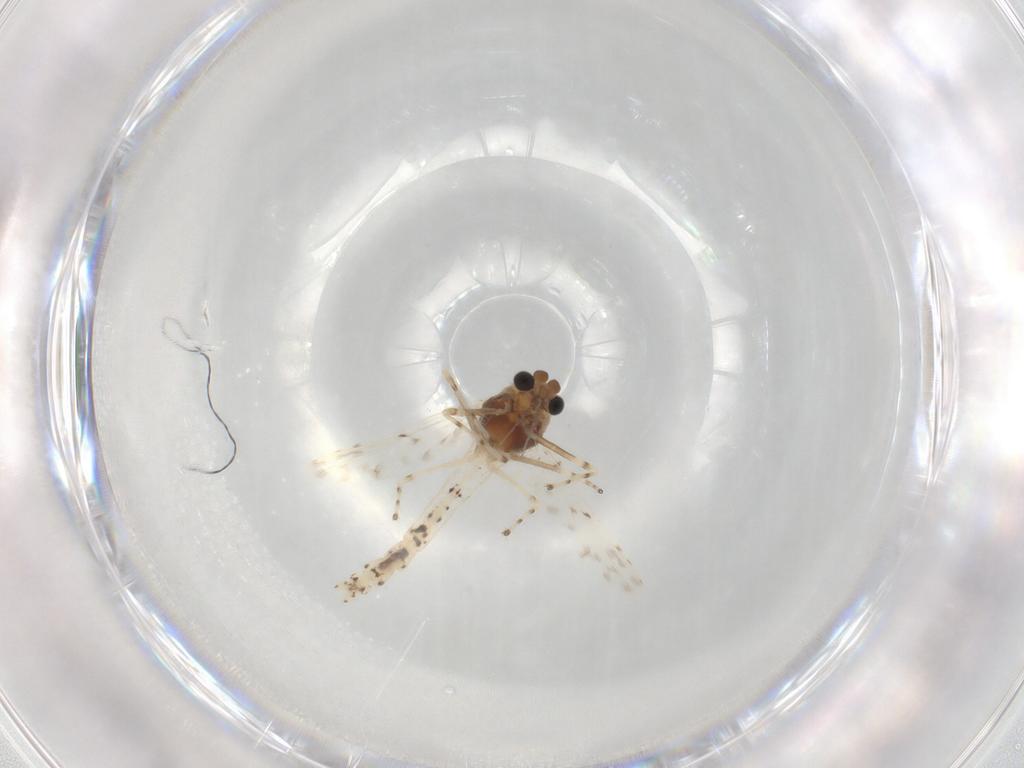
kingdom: Animalia
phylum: Arthropoda
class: Insecta
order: Diptera
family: Chironomidae
